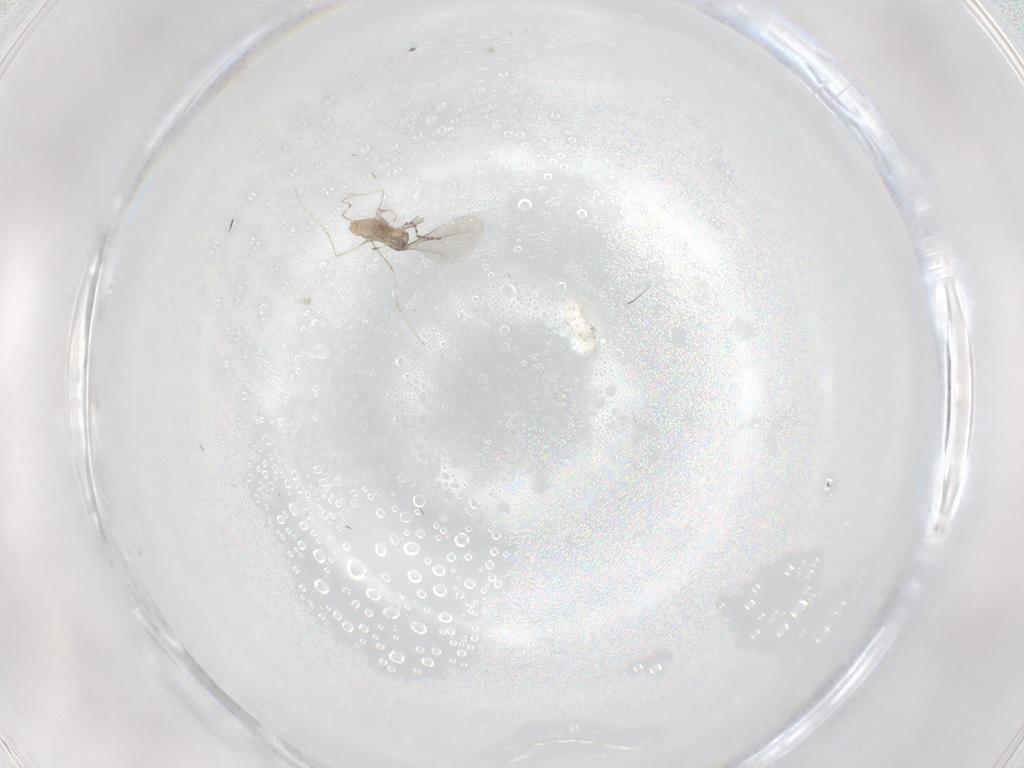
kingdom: Animalia
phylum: Arthropoda
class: Insecta
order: Diptera
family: Cecidomyiidae
